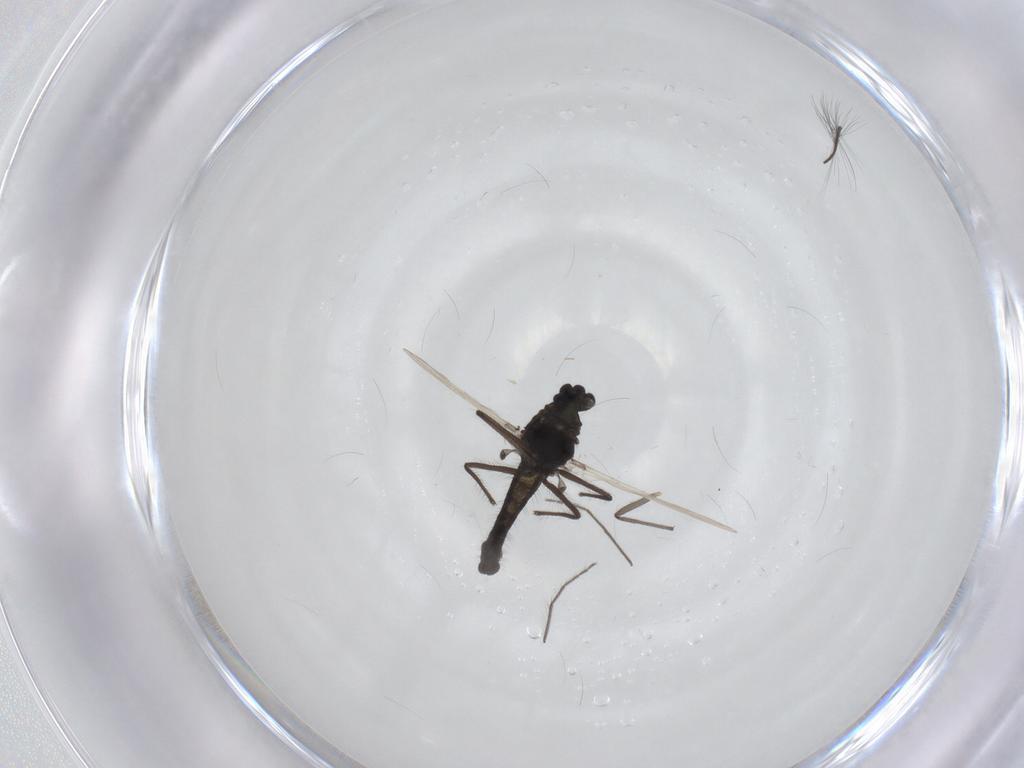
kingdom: Animalia
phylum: Arthropoda
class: Insecta
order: Diptera
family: Chironomidae
